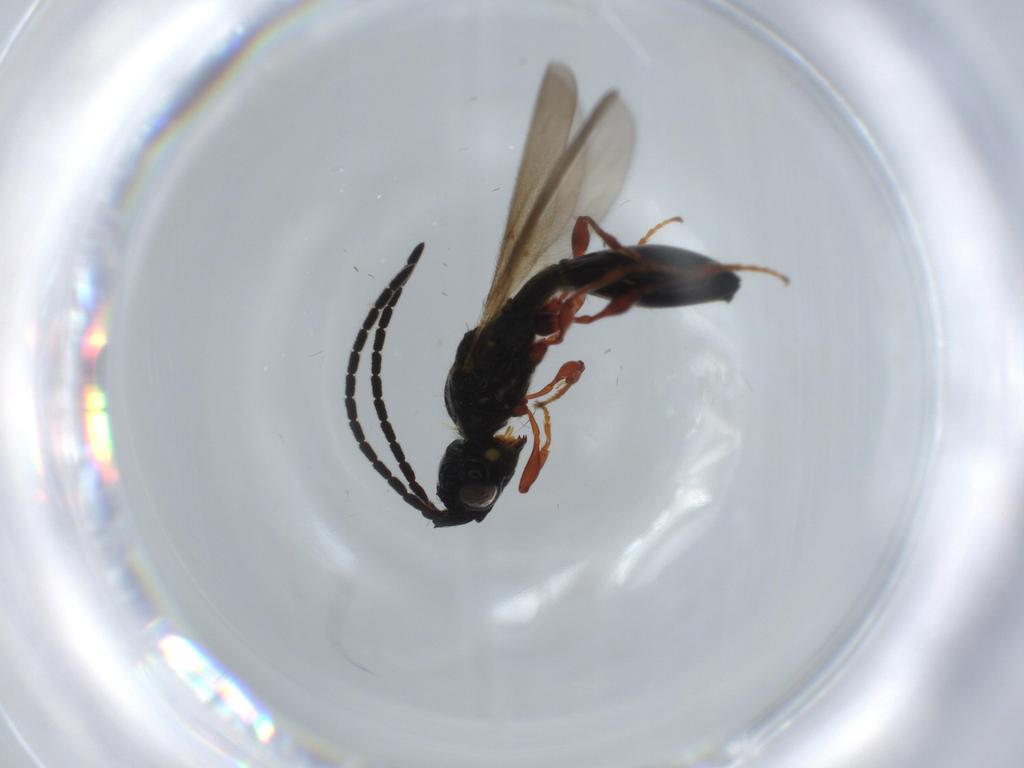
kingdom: Animalia
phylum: Arthropoda
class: Insecta
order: Hymenoptera
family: Diapriidae
